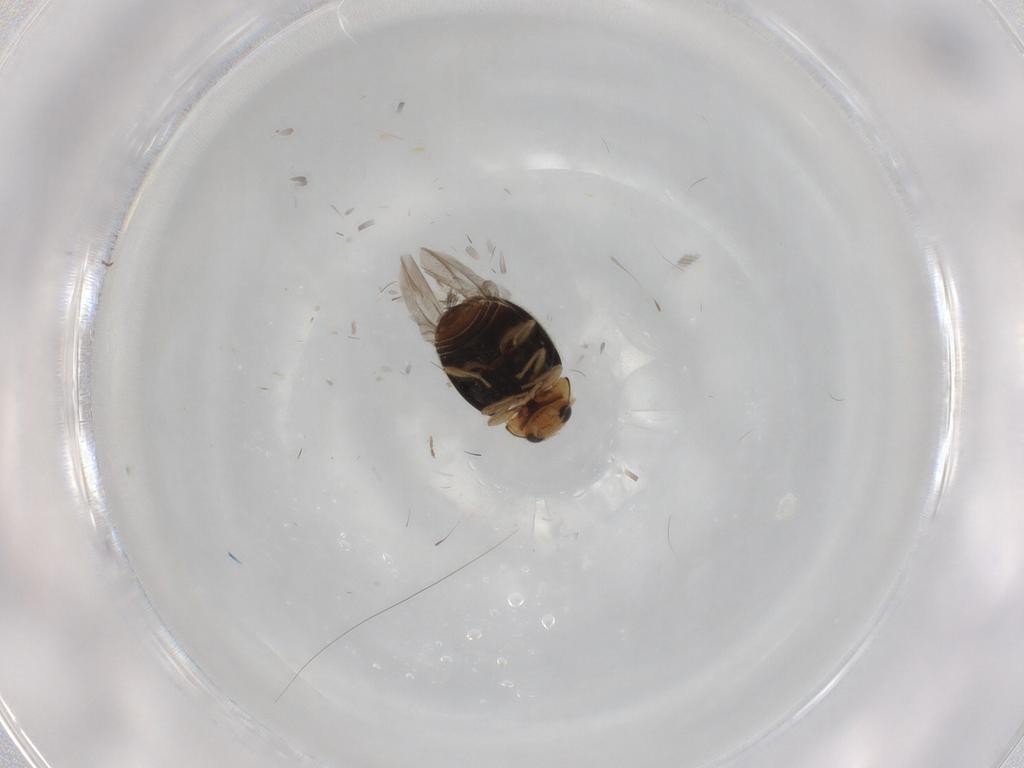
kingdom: Animalia
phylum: Arthropoda
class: Insecta
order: Coleoptera
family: Coccinellidae
